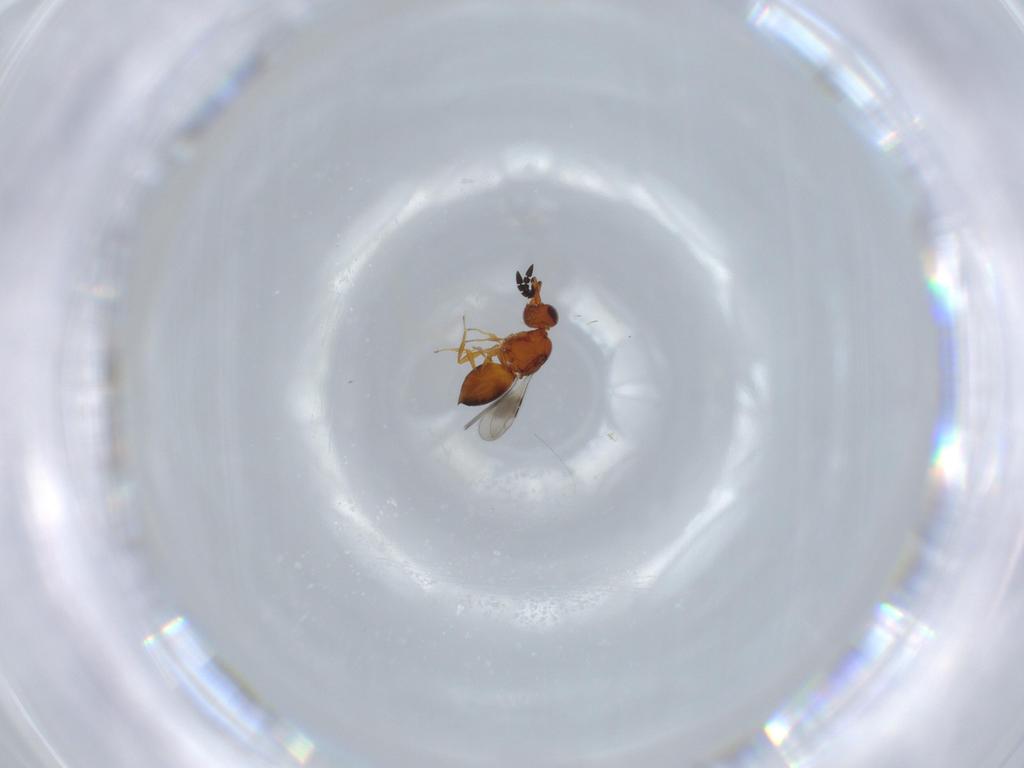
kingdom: Animalia
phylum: Arthropoda
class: Insecta
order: Hymenoptera
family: Ceraphronidae
